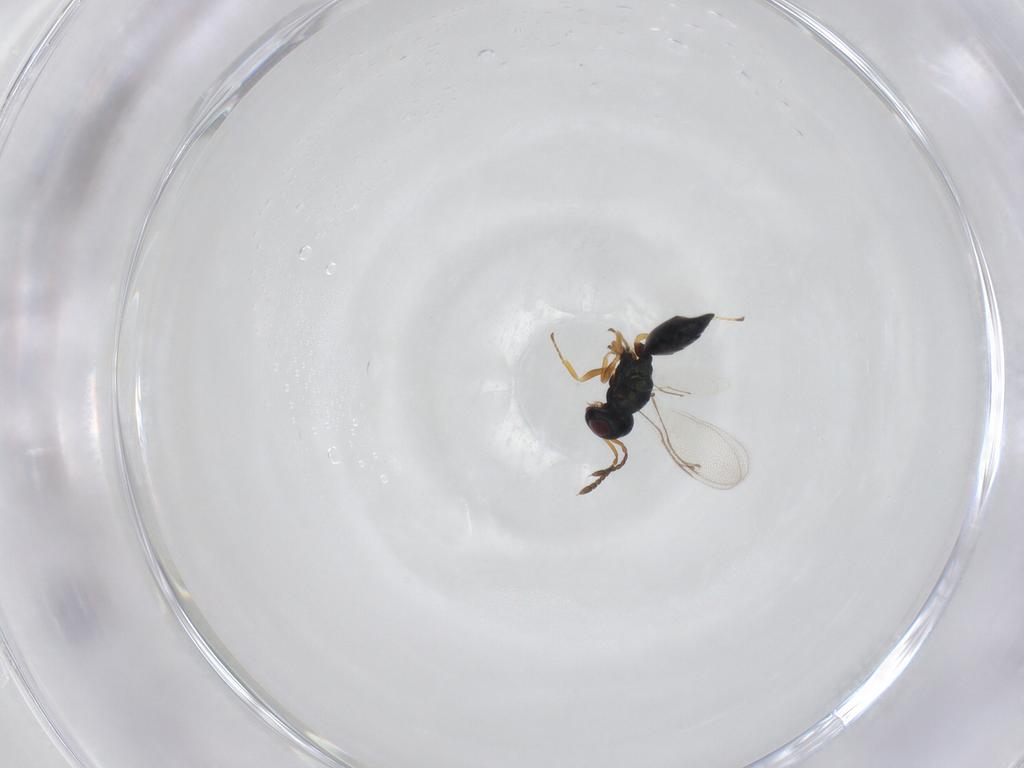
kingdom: Animalia
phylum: Arthropoda
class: Insecta
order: Hymenoptera
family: Pteromalidae
